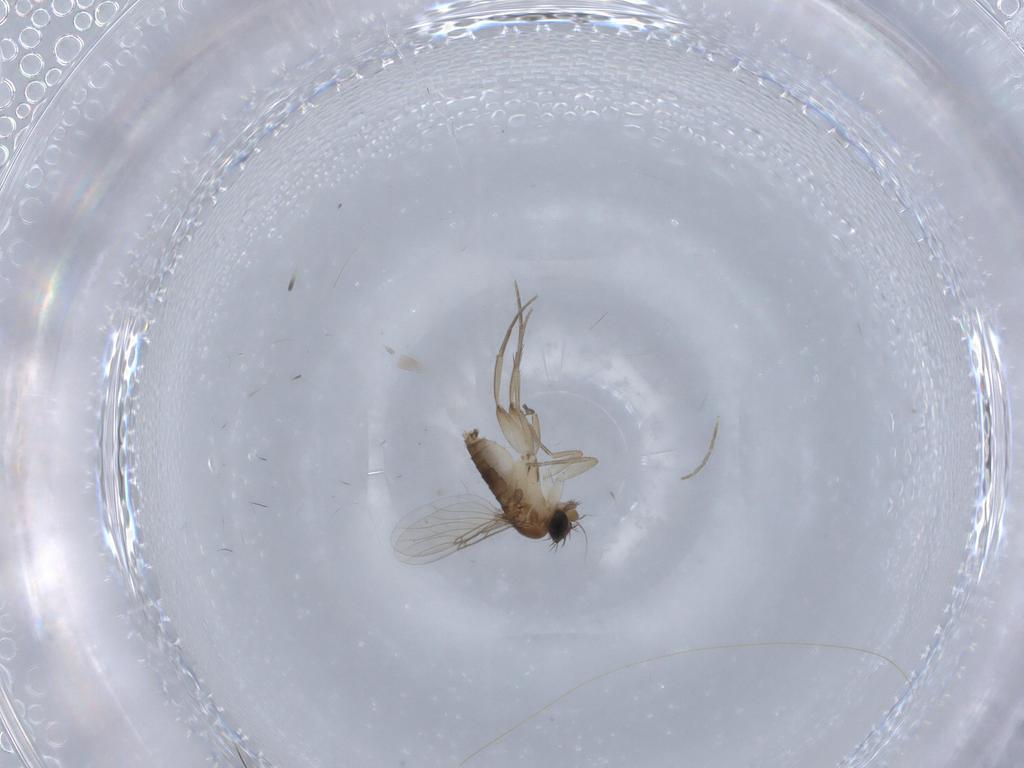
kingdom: Animalia
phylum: Arthropoda
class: Insecta
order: Diptera
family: Phoridae
